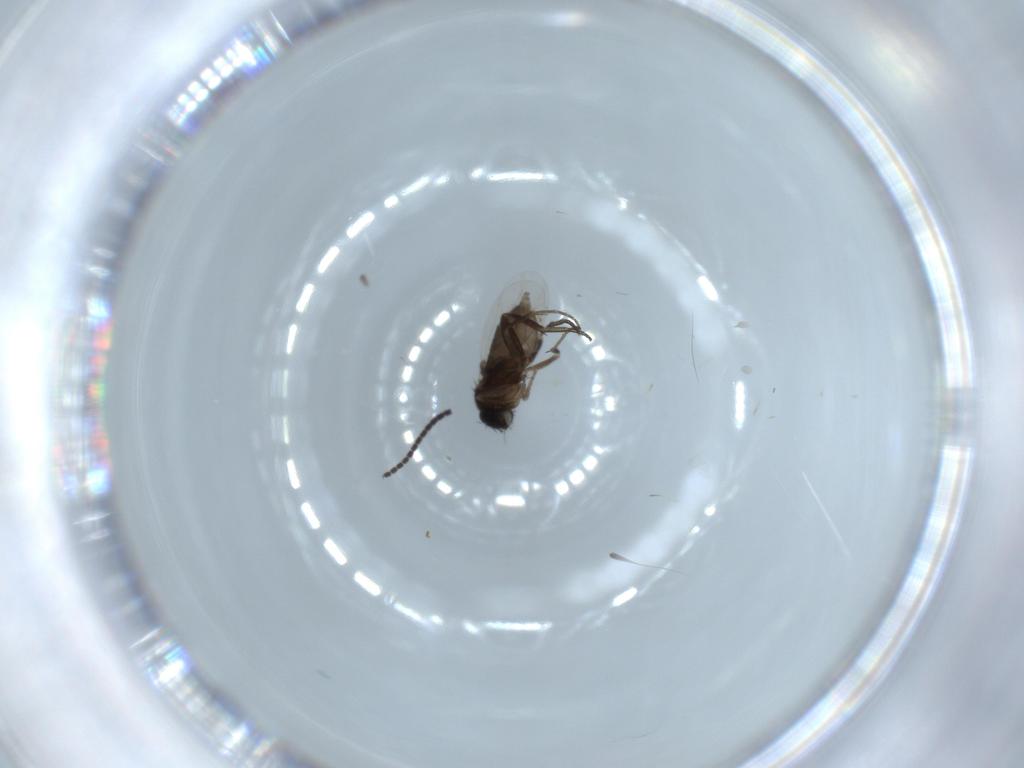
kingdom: Animalia
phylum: Arthropoda
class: Insecta
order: Diptera
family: Phoridae
